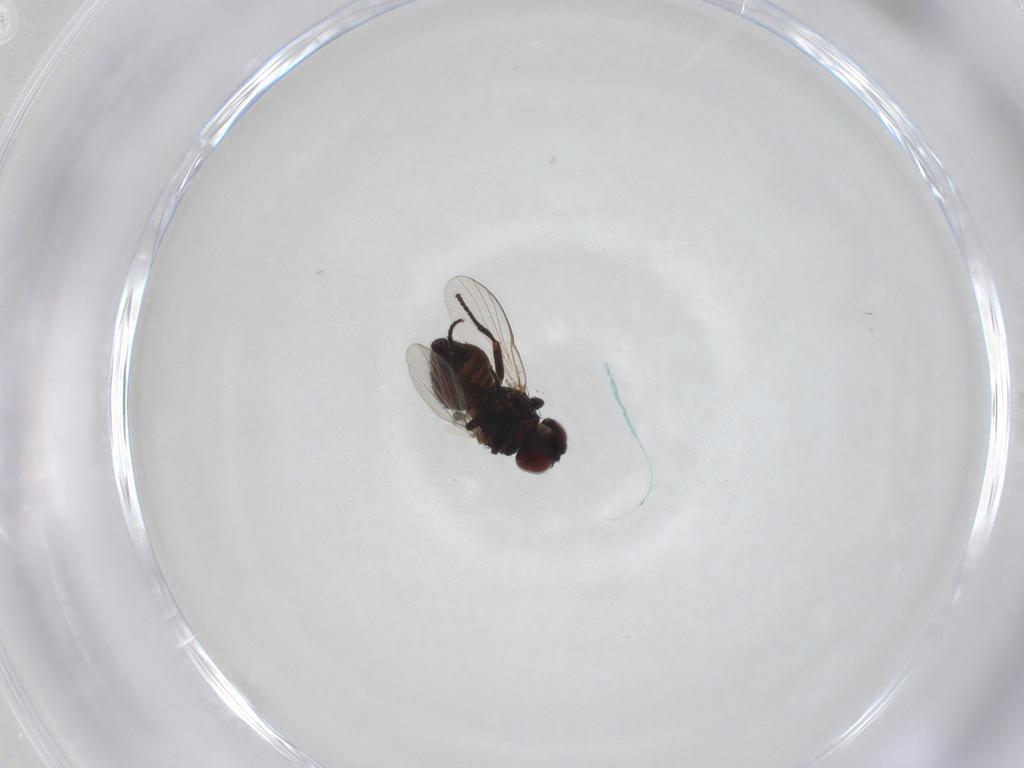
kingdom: Animalia
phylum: Arthropoda
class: Insecta
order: Diptera
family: Agromyzidae
